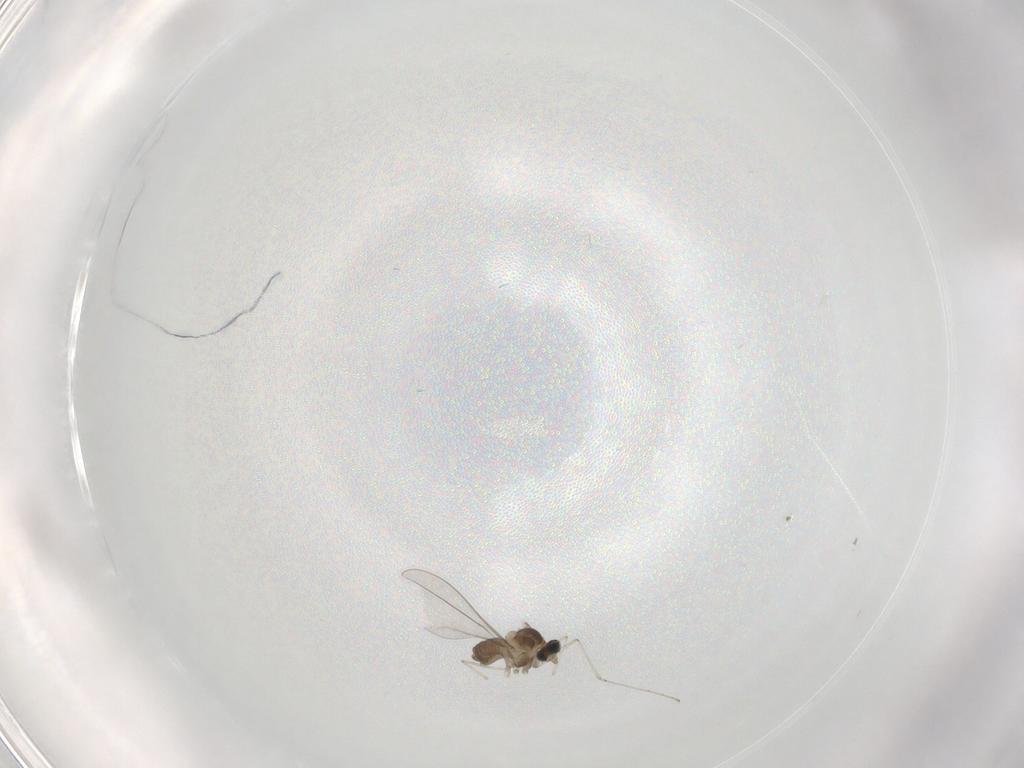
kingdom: Animalia
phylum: Arthropoda
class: Insecta
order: Diptera
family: Cecidomyiidae
